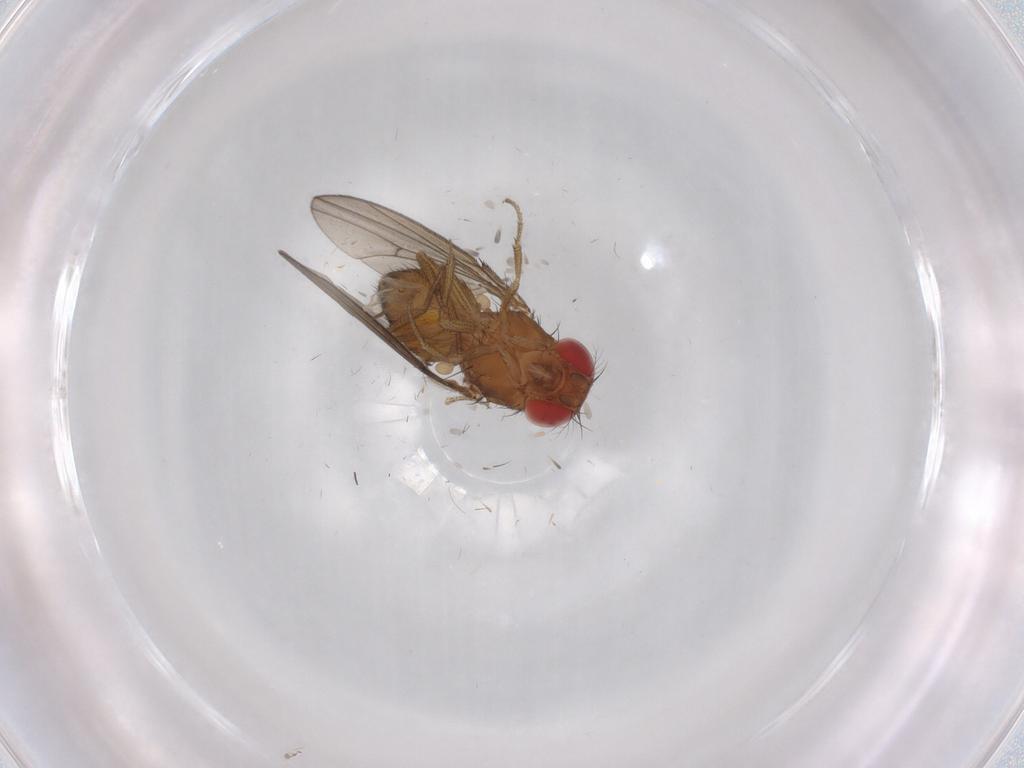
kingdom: Animalia
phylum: Arthropoda
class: Insecta
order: Diptera
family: Drosophilidae
